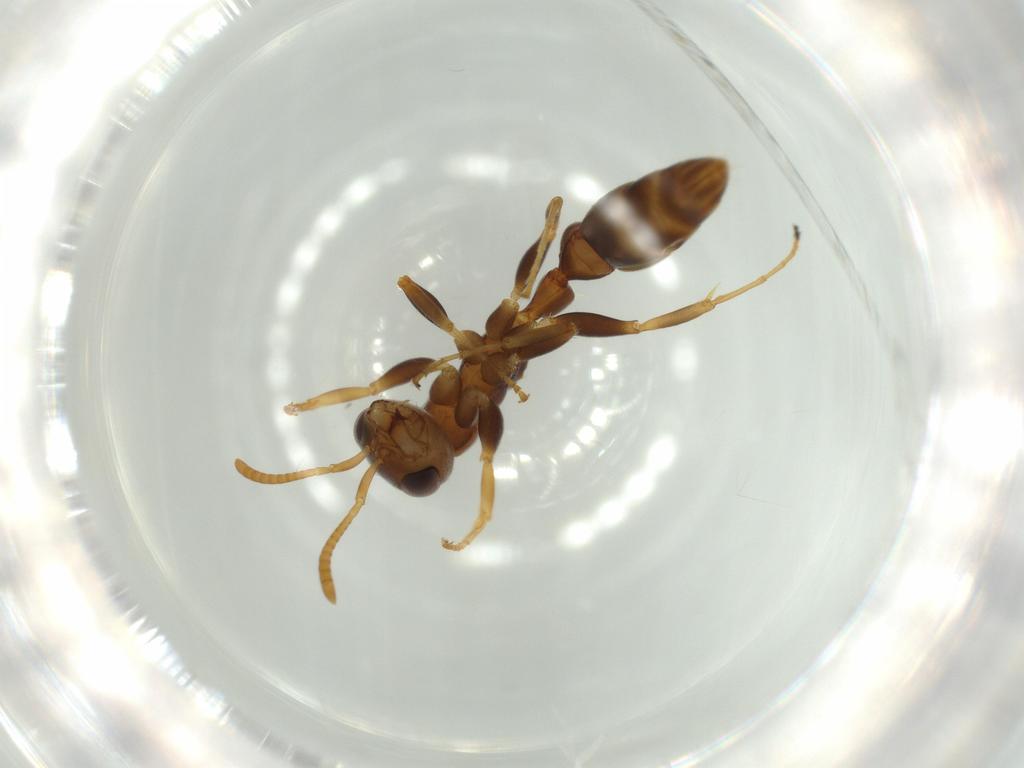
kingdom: Animalia
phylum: Arthropoda
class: Insecta
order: Hymenoptera
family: Formicidae
